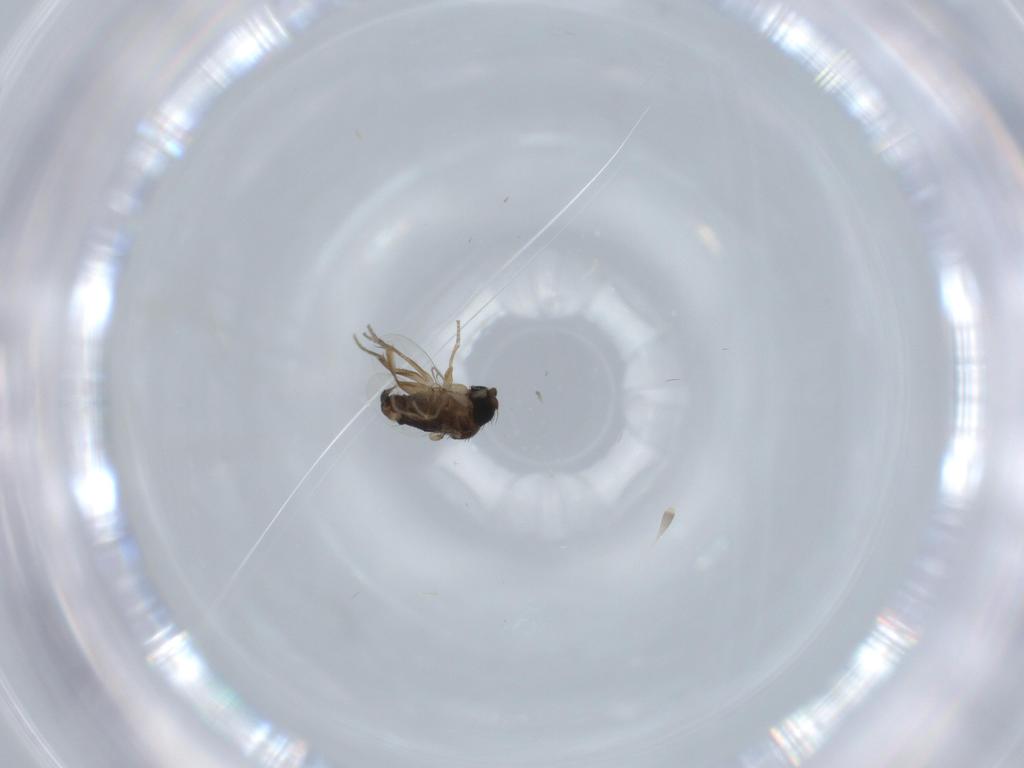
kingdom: Animalia
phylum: Arthropoda
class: Insecta
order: Diptera
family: Phoridae
